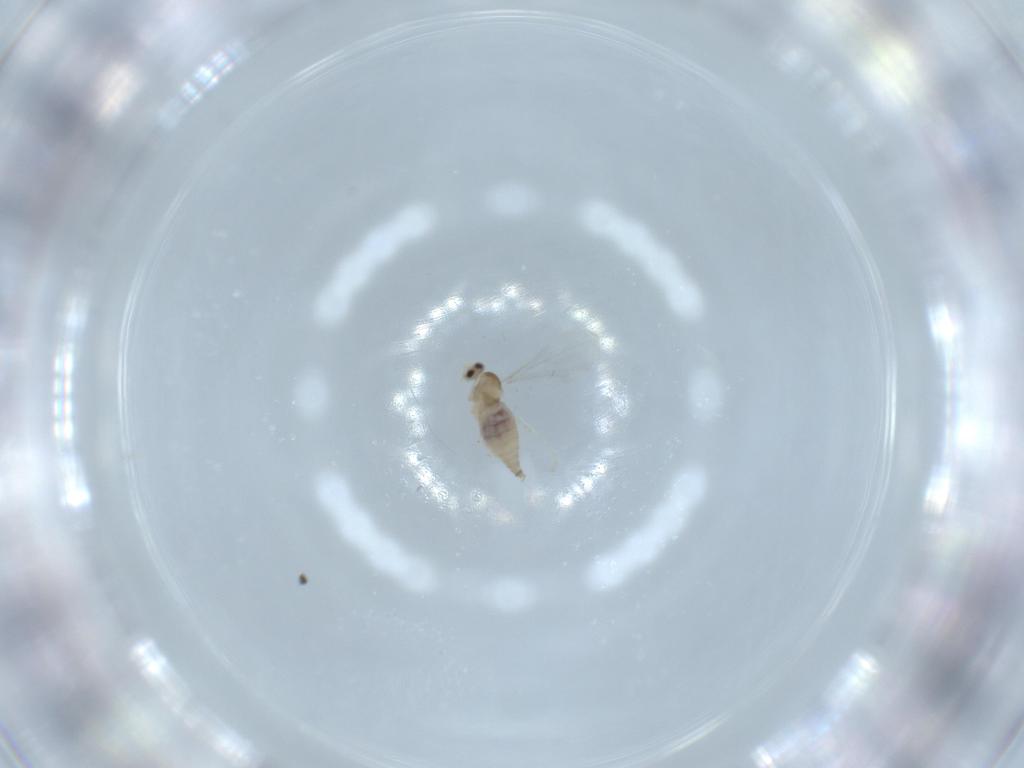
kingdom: Animalia
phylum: Arthropoda
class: Insecta
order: Diptera
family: Cecidomyiidae
